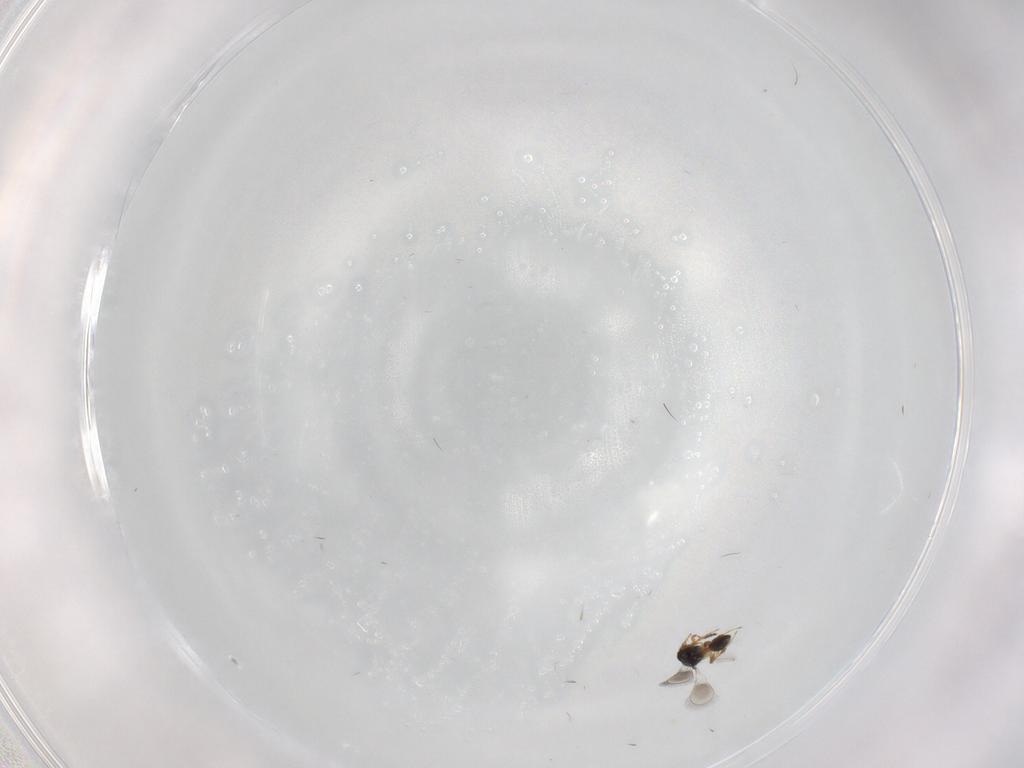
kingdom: Animalia
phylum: Arthropoda
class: Insecta
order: Hymenoptera
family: Platygastridae
